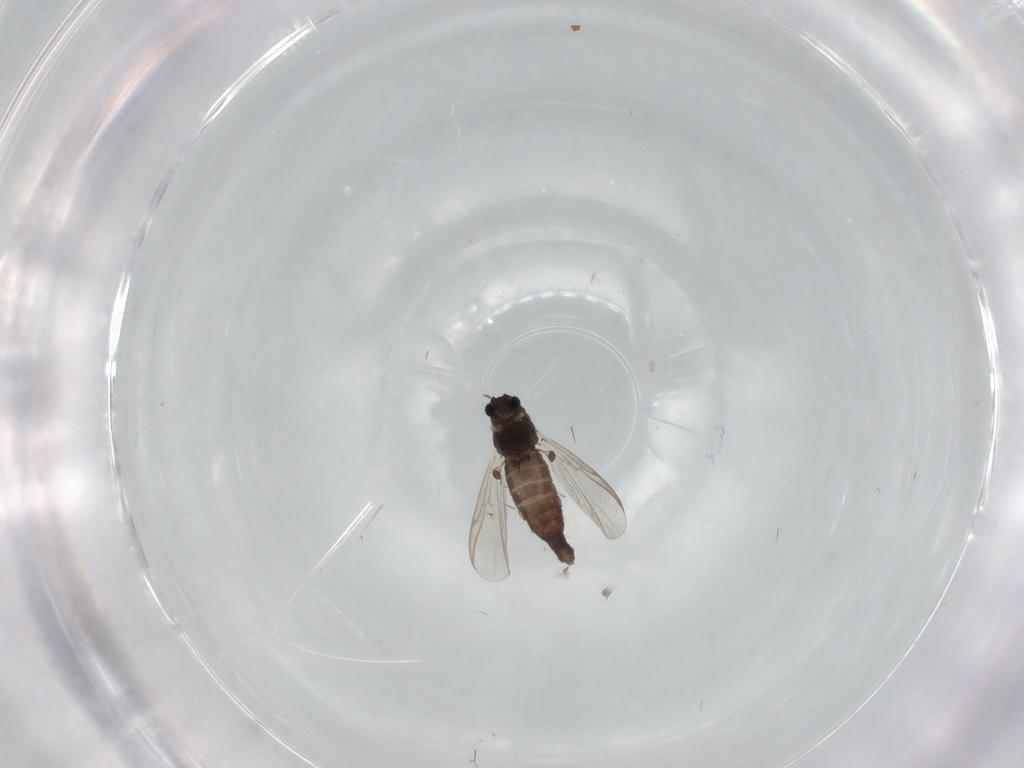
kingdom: Animalia
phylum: Arthropoda
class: Insecta
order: Diptera
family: Chironomidae
